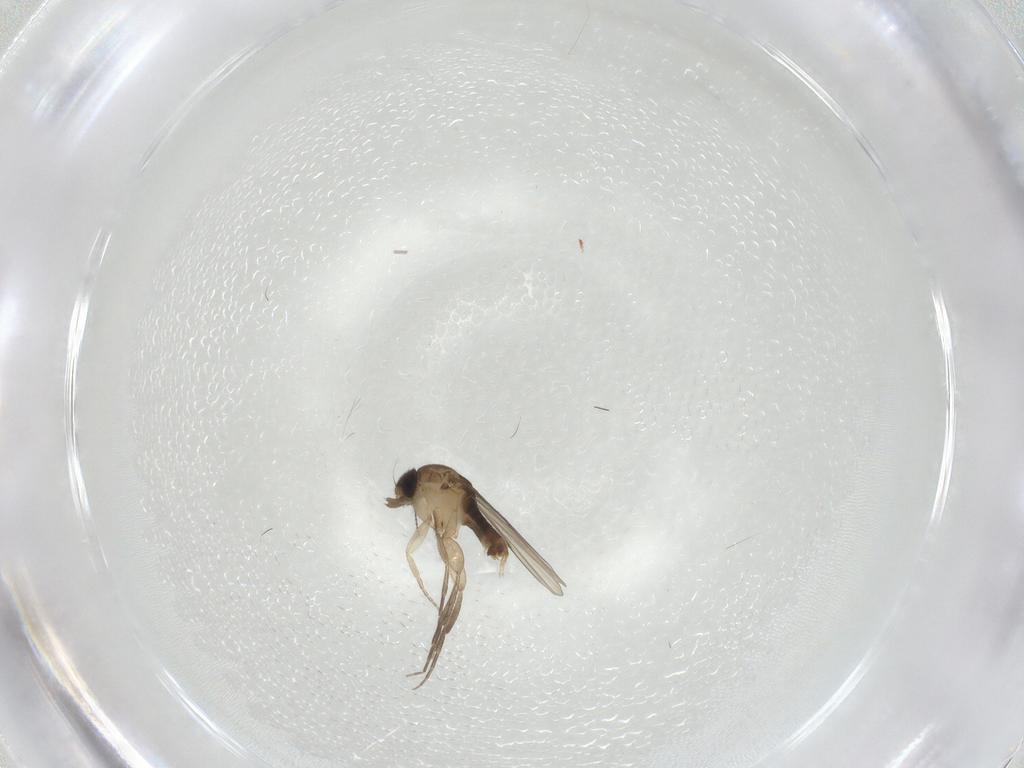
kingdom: Animalia
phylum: Arthropoda
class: Insecta
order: Diptera
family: Phoridae
